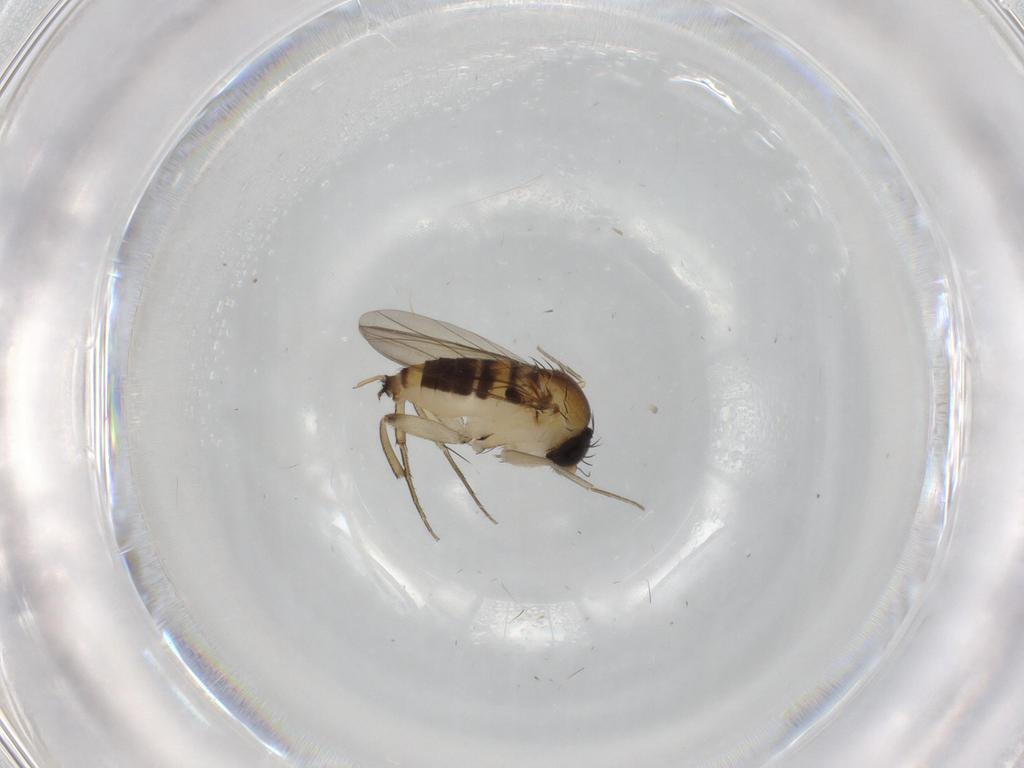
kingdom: Animalia
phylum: Arthropoda
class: Insecta
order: Diptera
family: Phoridae
